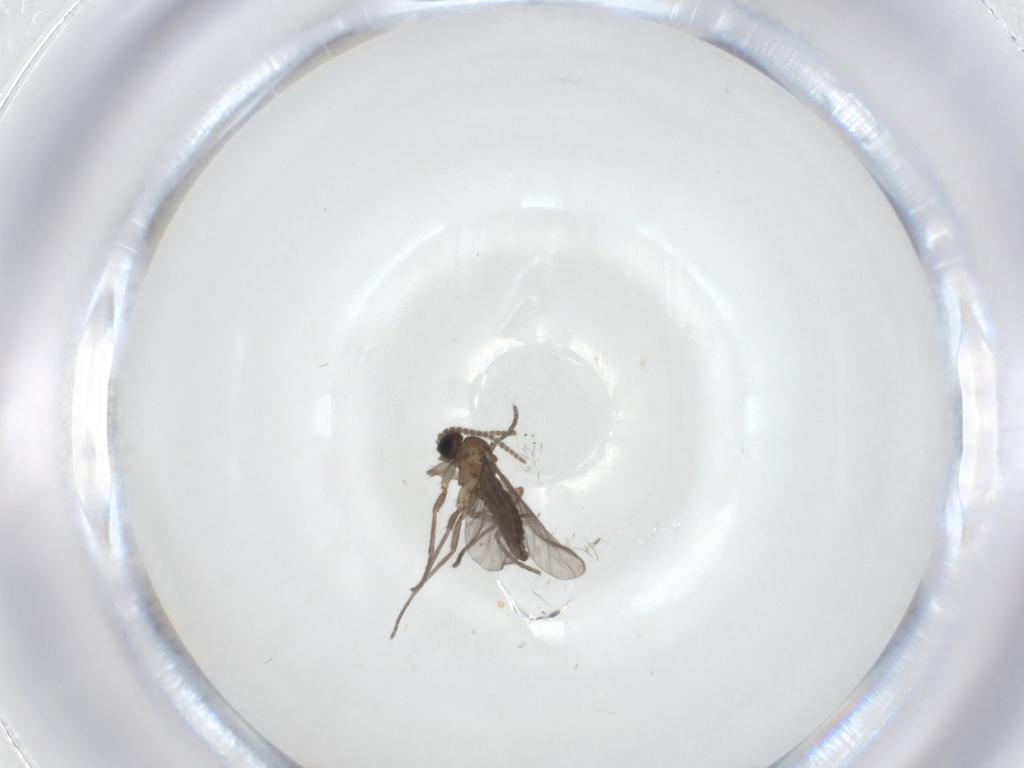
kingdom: Animalia
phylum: Arthropoda
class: Insecta
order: Diptera
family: Sciaridae
